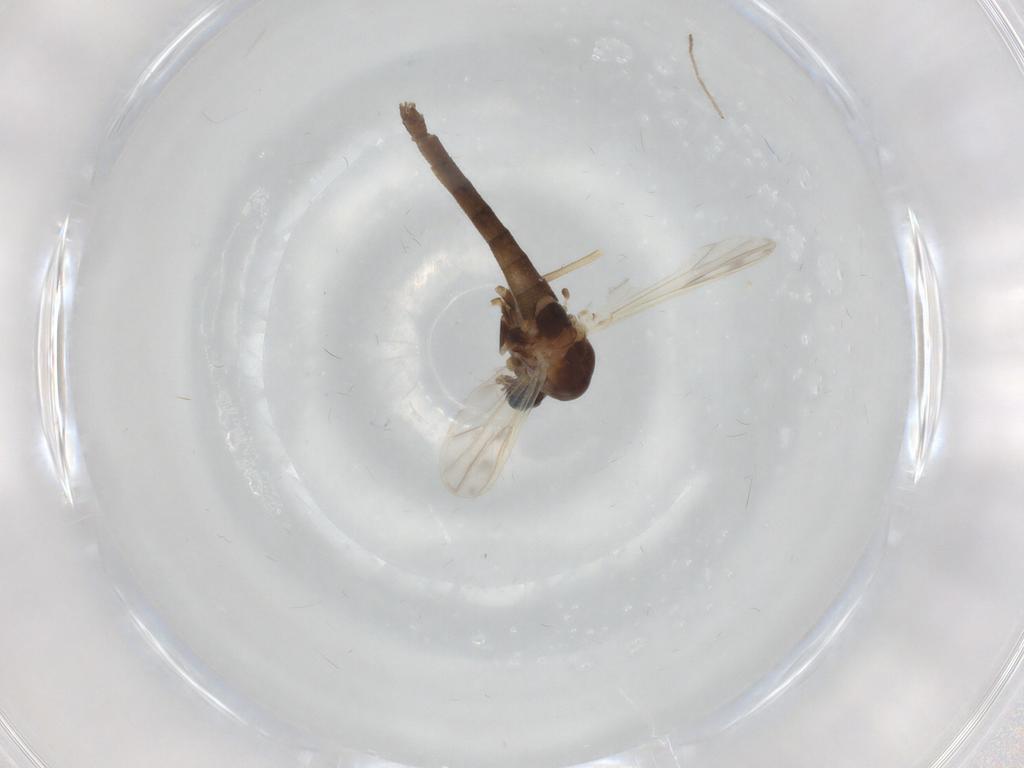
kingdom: Animalia
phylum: Arthropoda
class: Insecta
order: Diptera
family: Chironomidae
